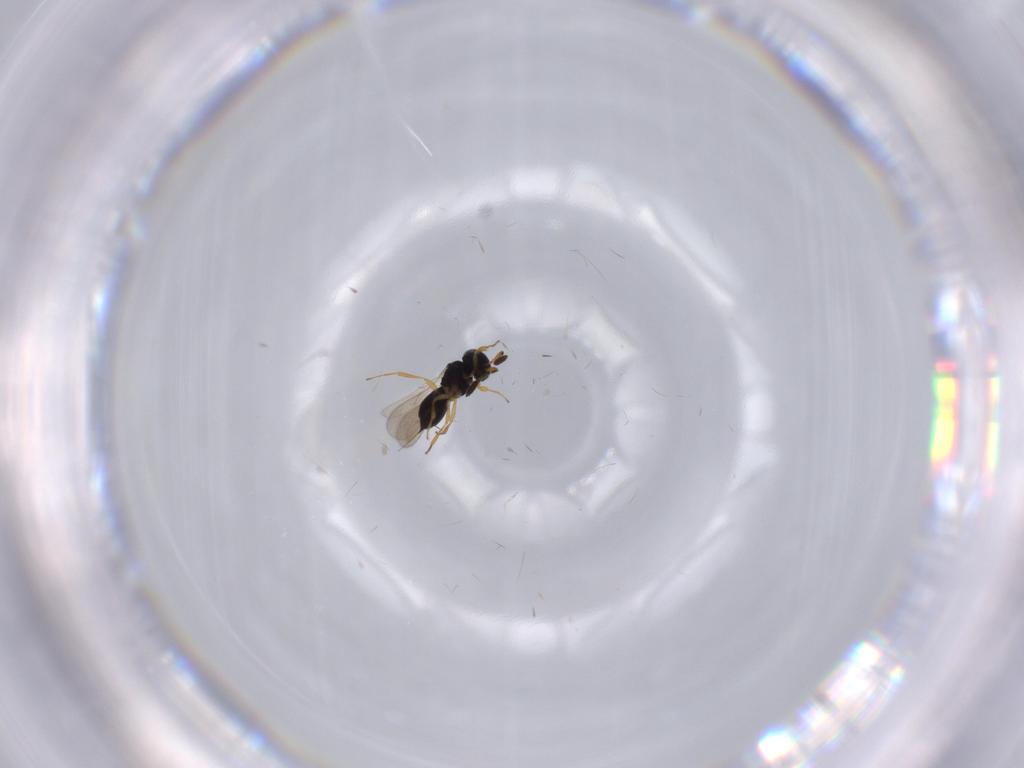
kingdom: Animalia
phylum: Arthropoda
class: Insecta
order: Hymenoptera
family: Scelionidae
